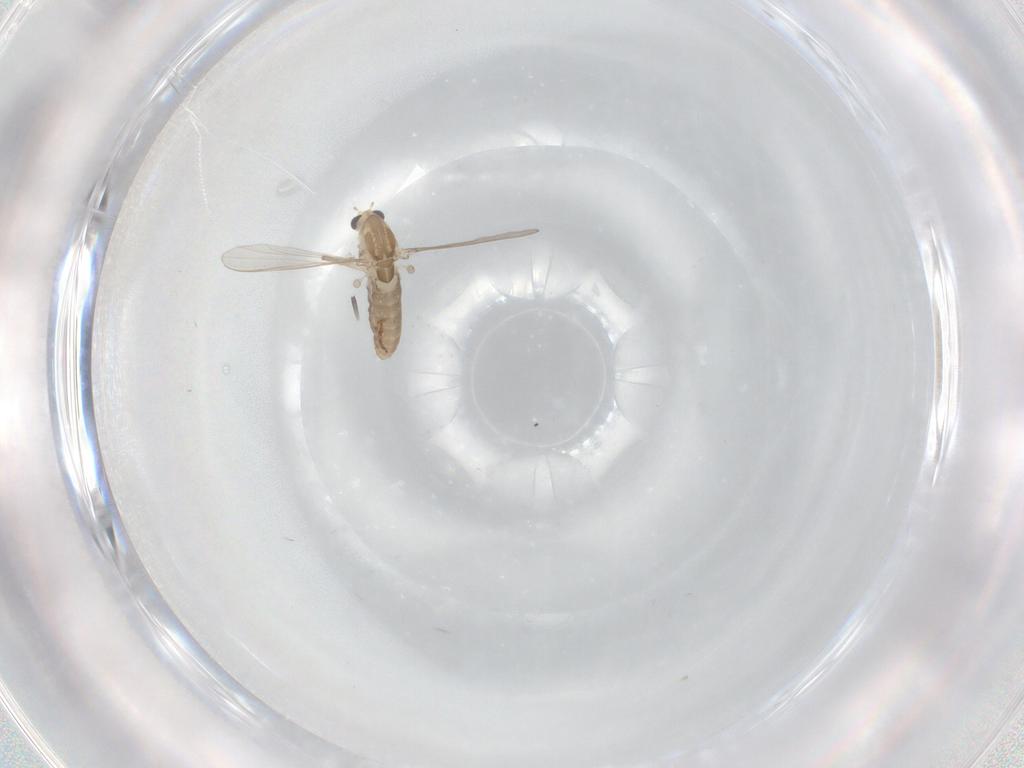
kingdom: Animalia
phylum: Arthropoda
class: Insecta
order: Diptera
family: Chironomidae
